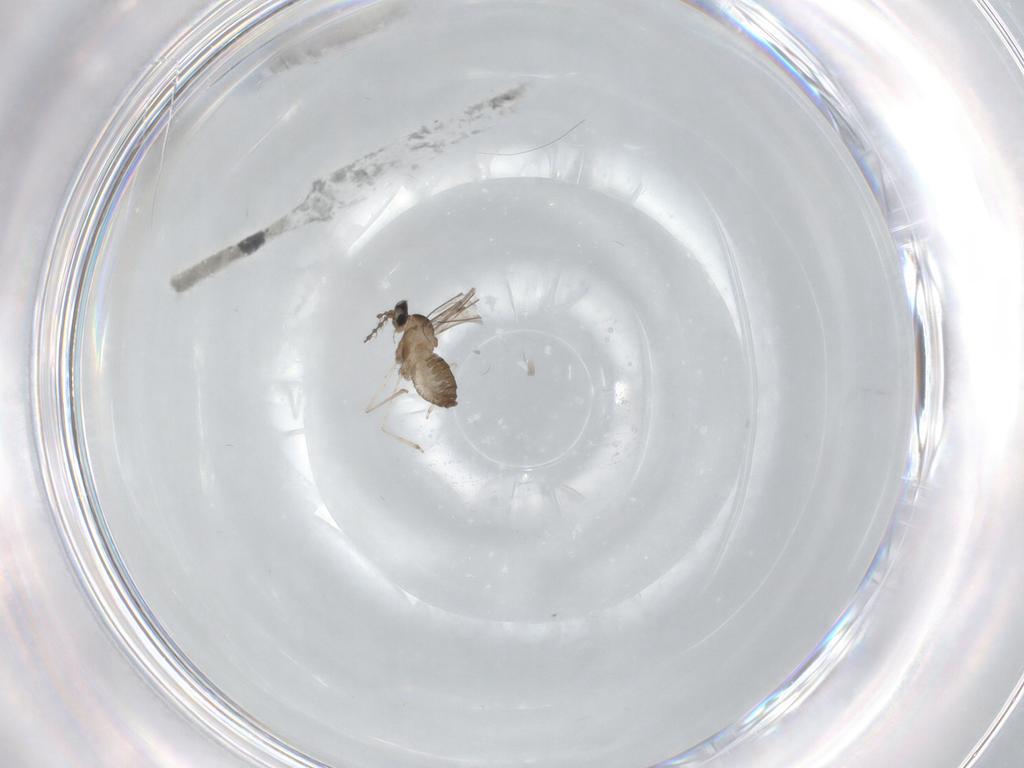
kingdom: Animalia
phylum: Arthropoda
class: Insecta
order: Diptera
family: Cecidomyiidae
